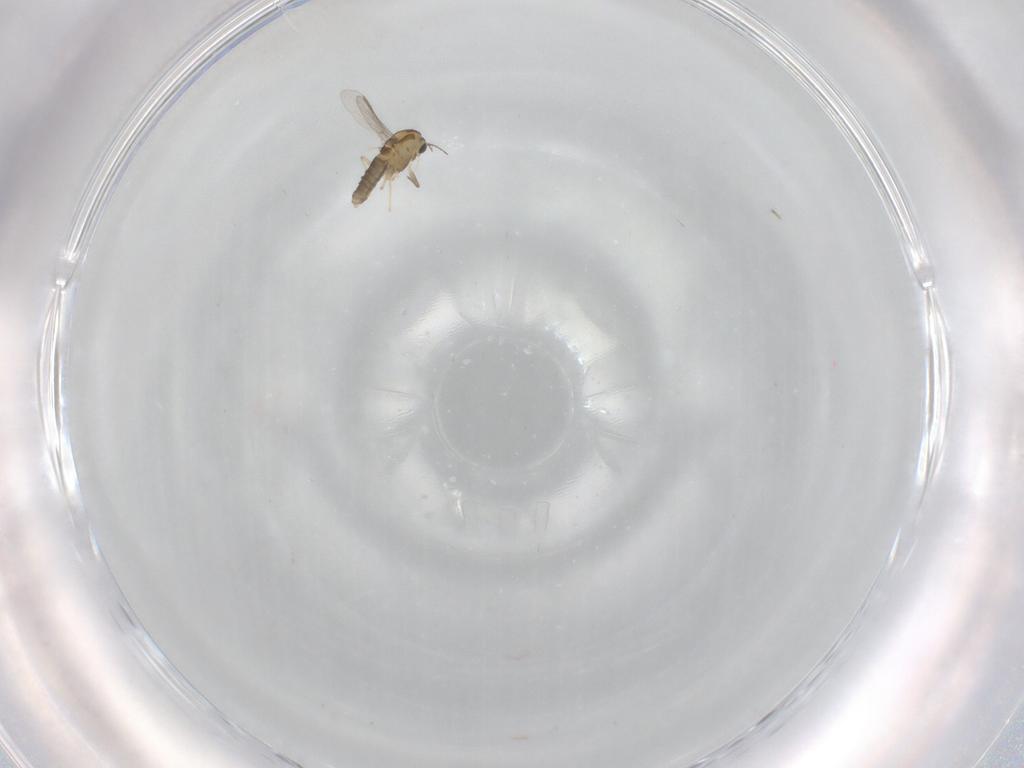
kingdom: Animalia
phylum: Arthropoda
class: Insecta
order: Diptera
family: Chironomidae
